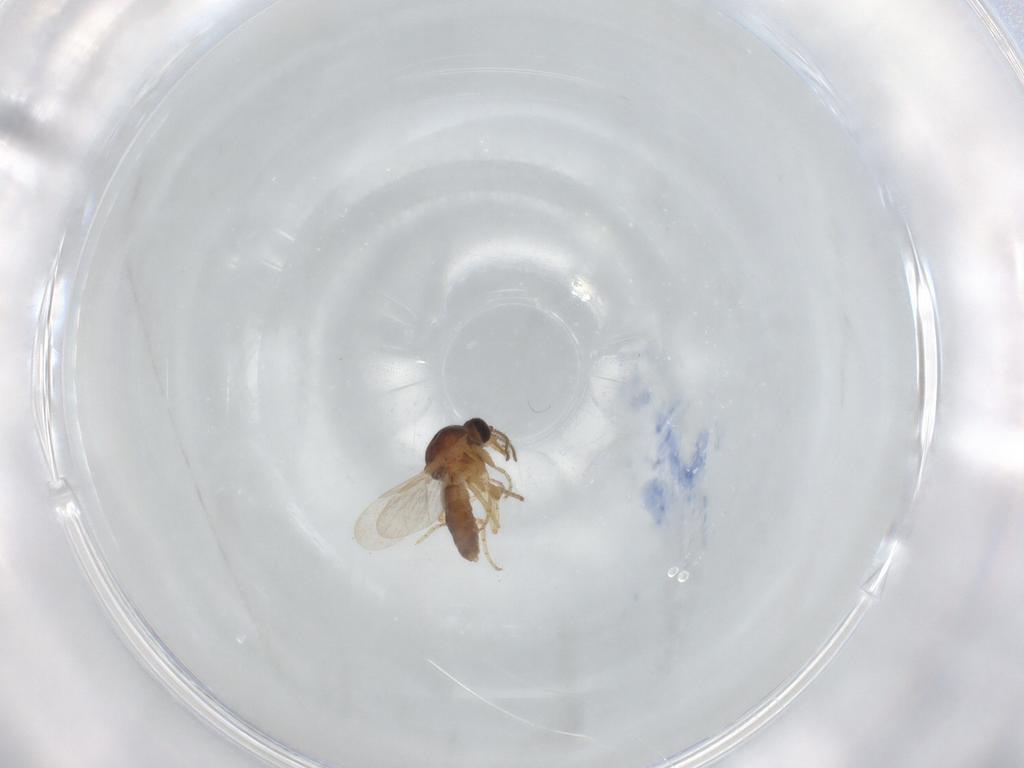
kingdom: Animalia
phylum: Arthropoda
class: Insecta
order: Diptera
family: Ceratopogonidae
